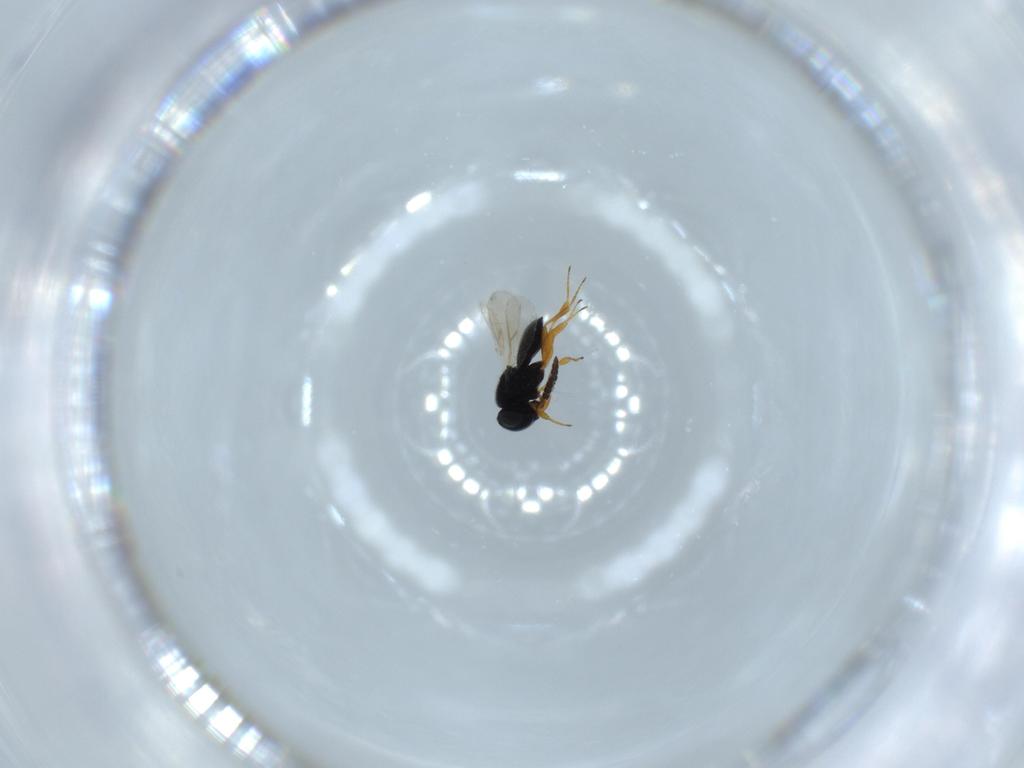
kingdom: Animalia
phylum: Arthropoda
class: Insecta
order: Hymenoptera
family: Scelionidae
